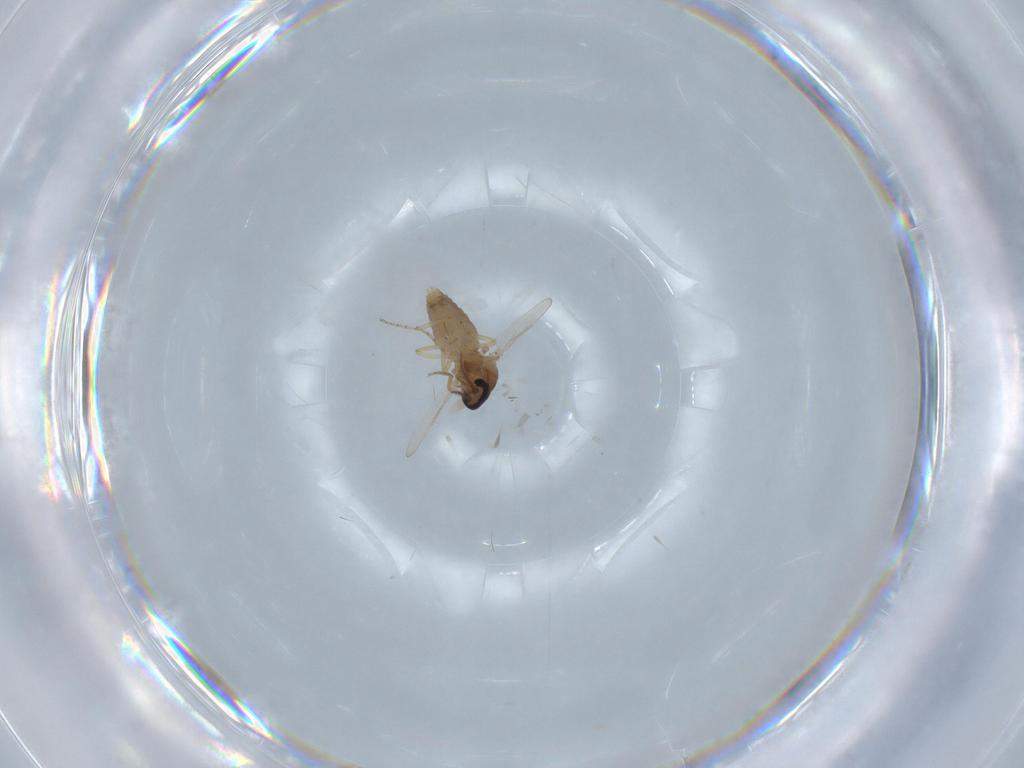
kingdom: Animalia
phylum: Arthropoda
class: Insecta
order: Diptera
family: Ceratopogonidae
